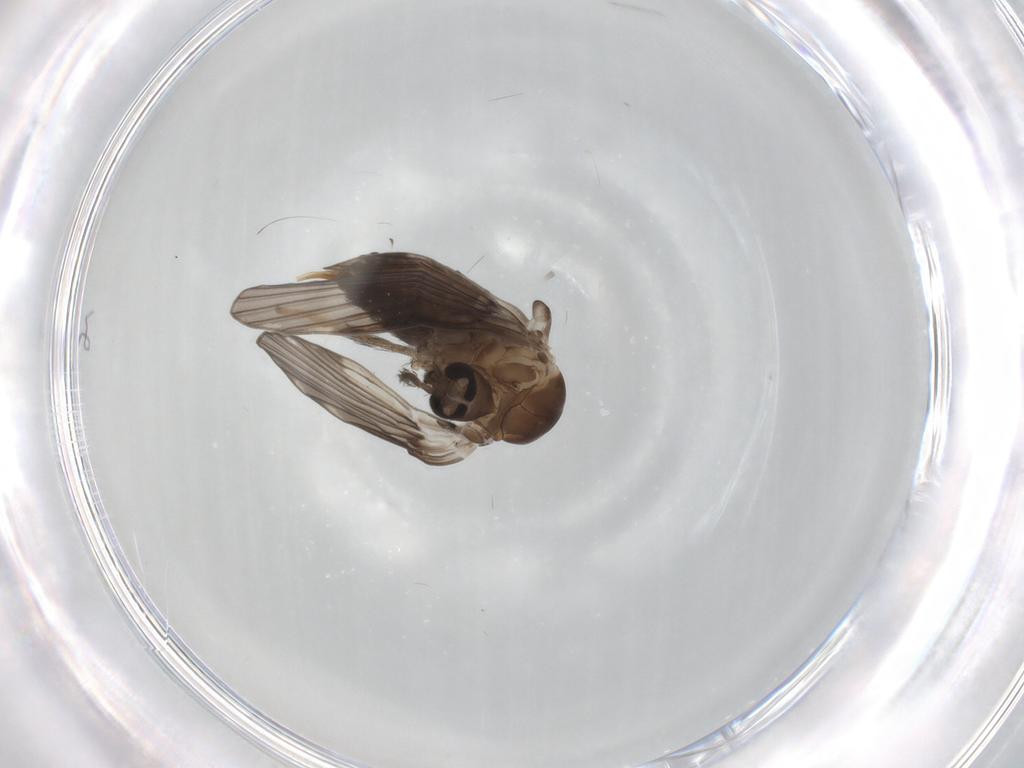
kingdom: Animalia
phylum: Arthropoda
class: Insecta
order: Diptera
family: Psychodidae
